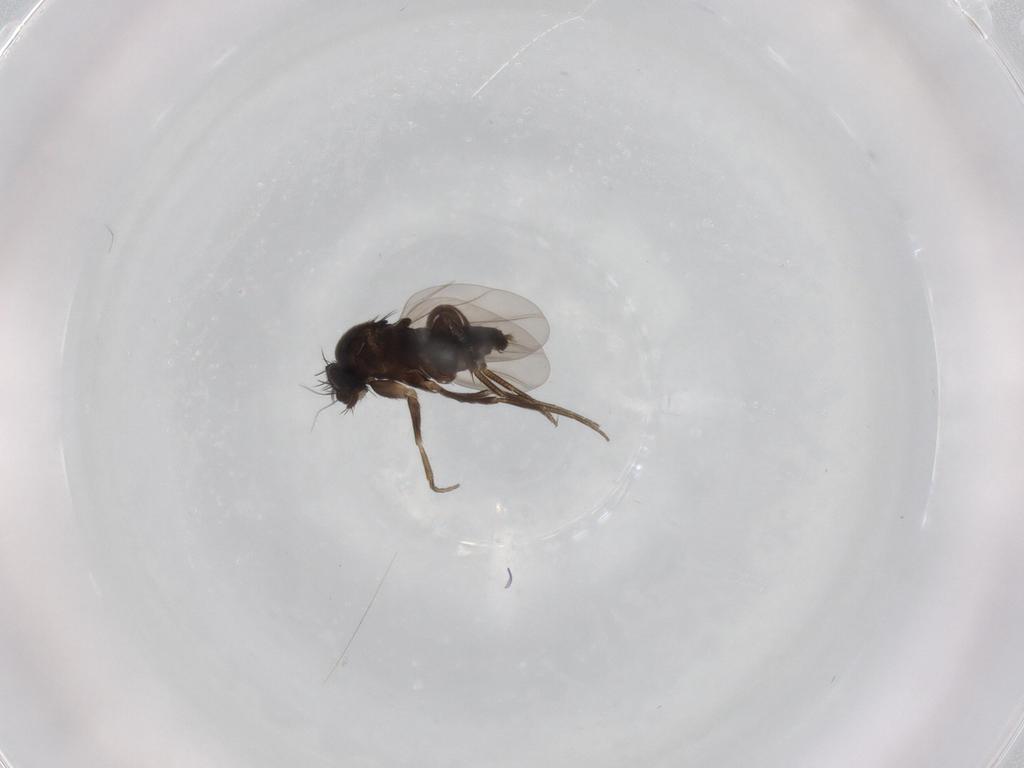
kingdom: Animalia
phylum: Arthropoda
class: Insecta
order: Diptera
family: Phoridae
